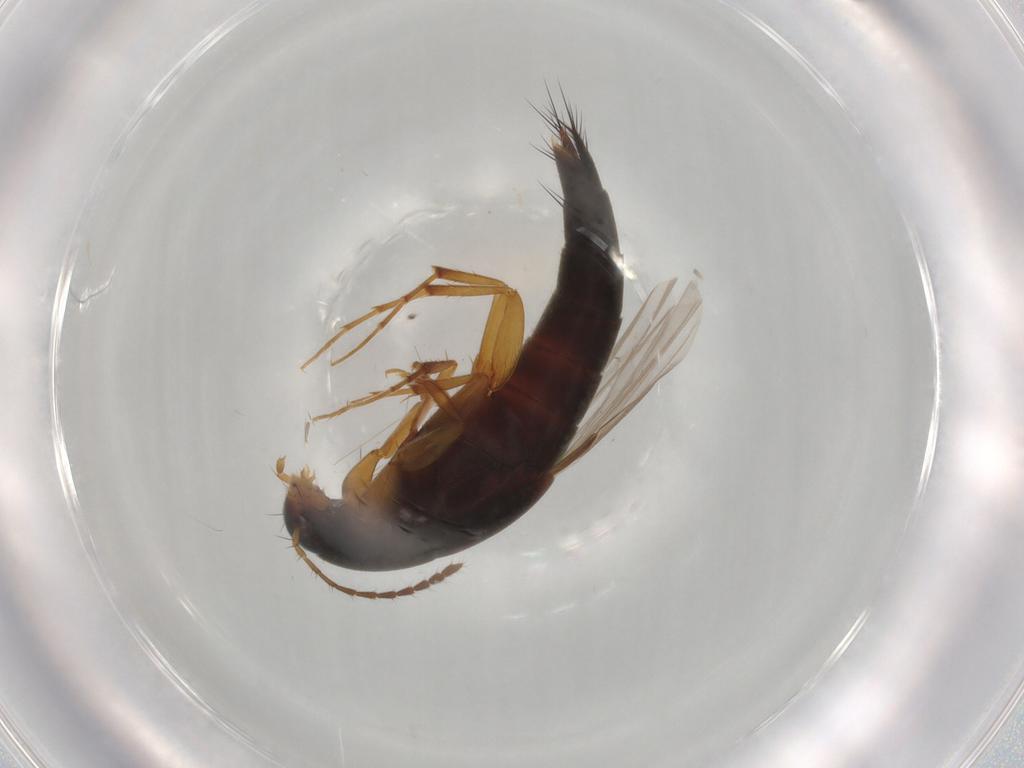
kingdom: Animalia
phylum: Arthropoda
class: Insecta
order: Coleoptera
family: Staphylinidae
